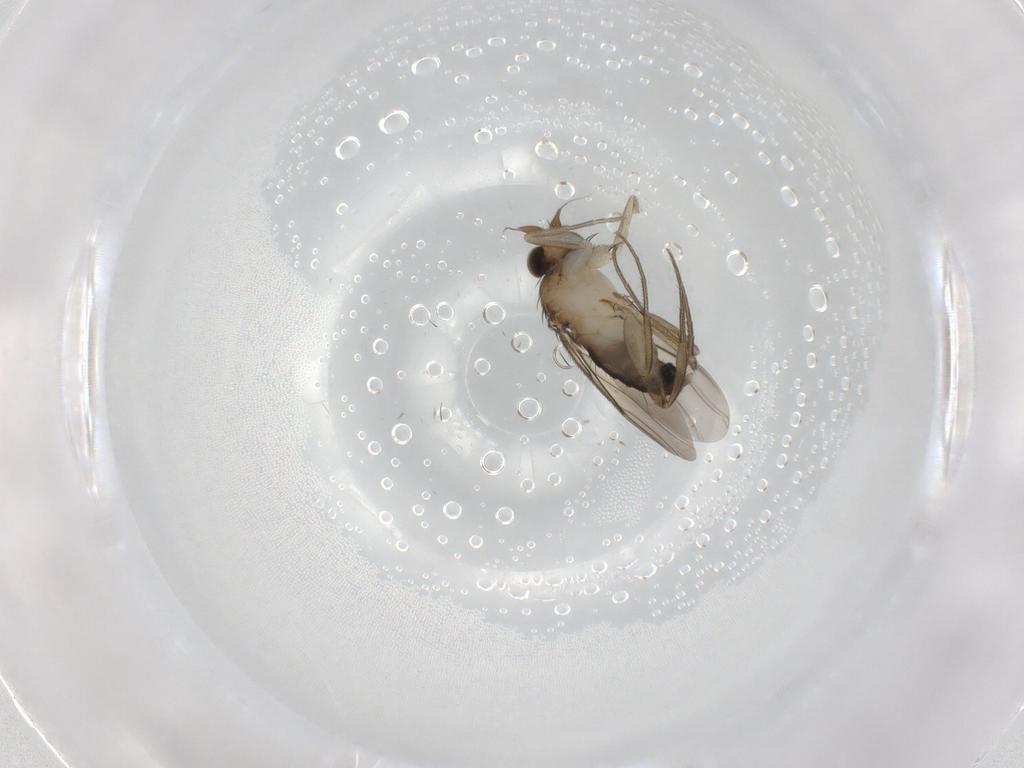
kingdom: Animalia
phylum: Arthropoda
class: Insecta
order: Diptera
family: Phoridae
